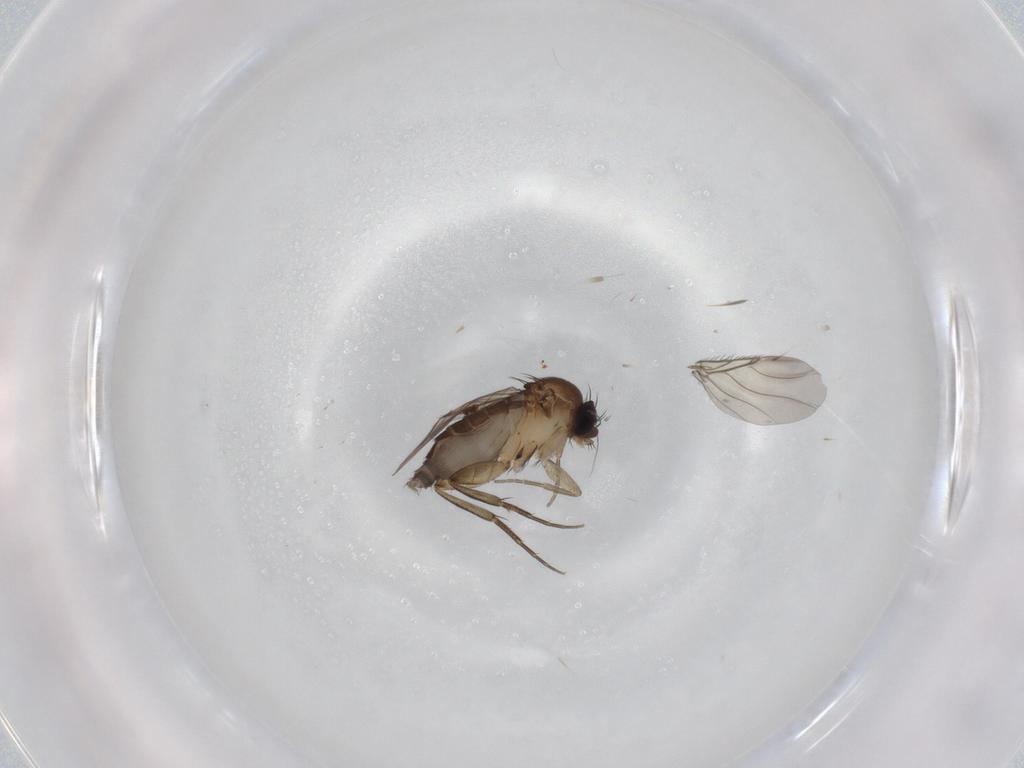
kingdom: Animalia
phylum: Arthropoda
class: Insecta
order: Diptera
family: Phoridae
